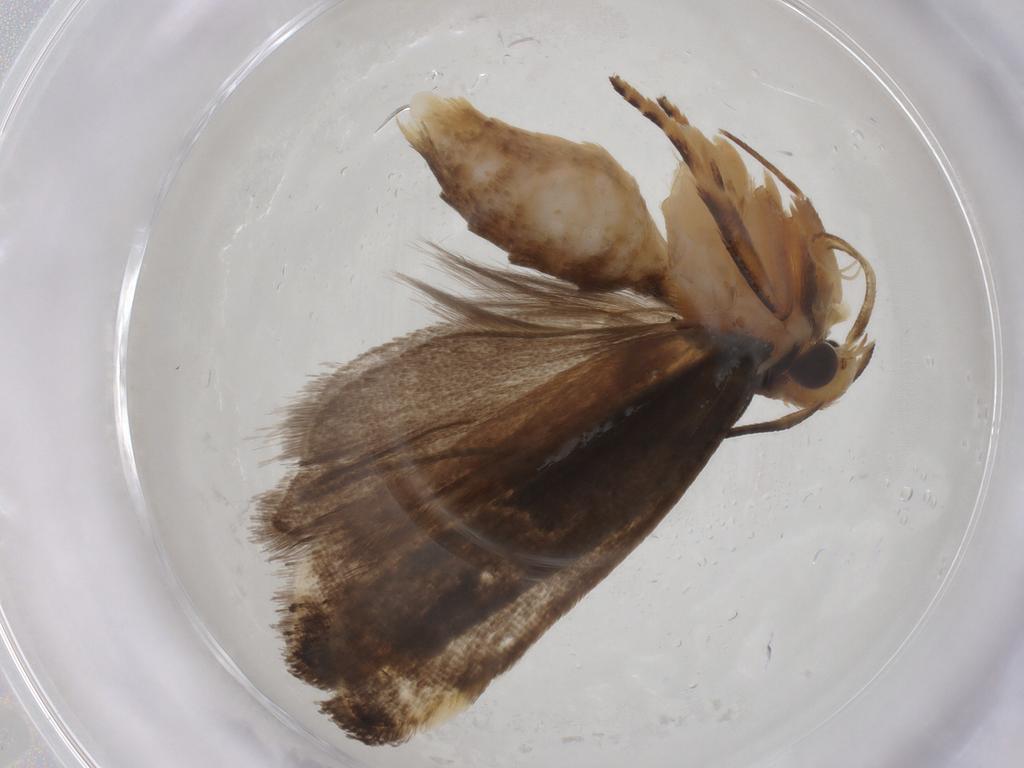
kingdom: Animalia
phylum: Arthropoda
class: Insecta
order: Lepidoptera
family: Gelechiidae
